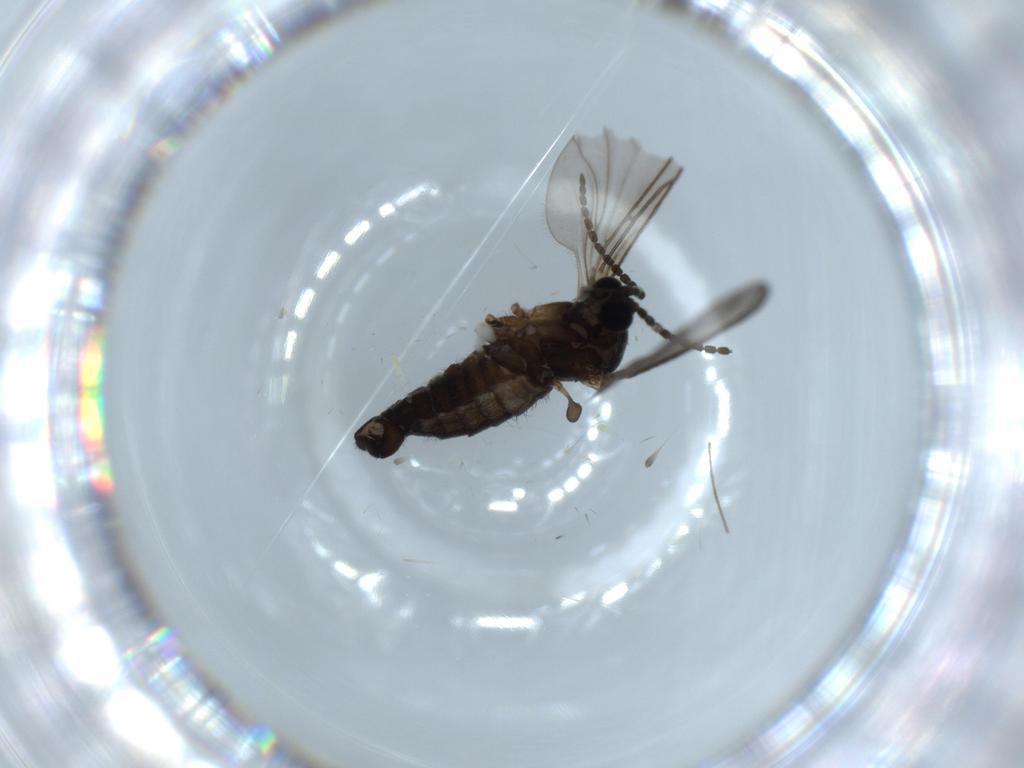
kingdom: Animalia
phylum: Arthropoda
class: Insecta
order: Diptera
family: Sciaridae
